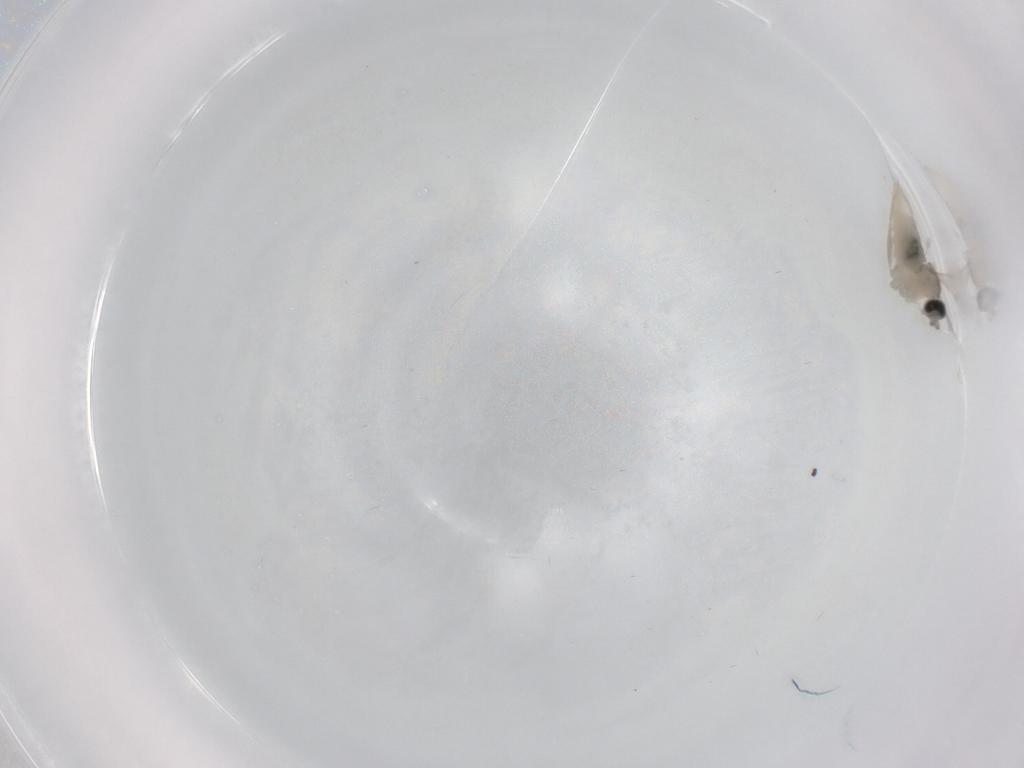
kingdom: Animalia
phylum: Arthropoda
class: Insecta
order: Diptera
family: Cecidomyiidae
